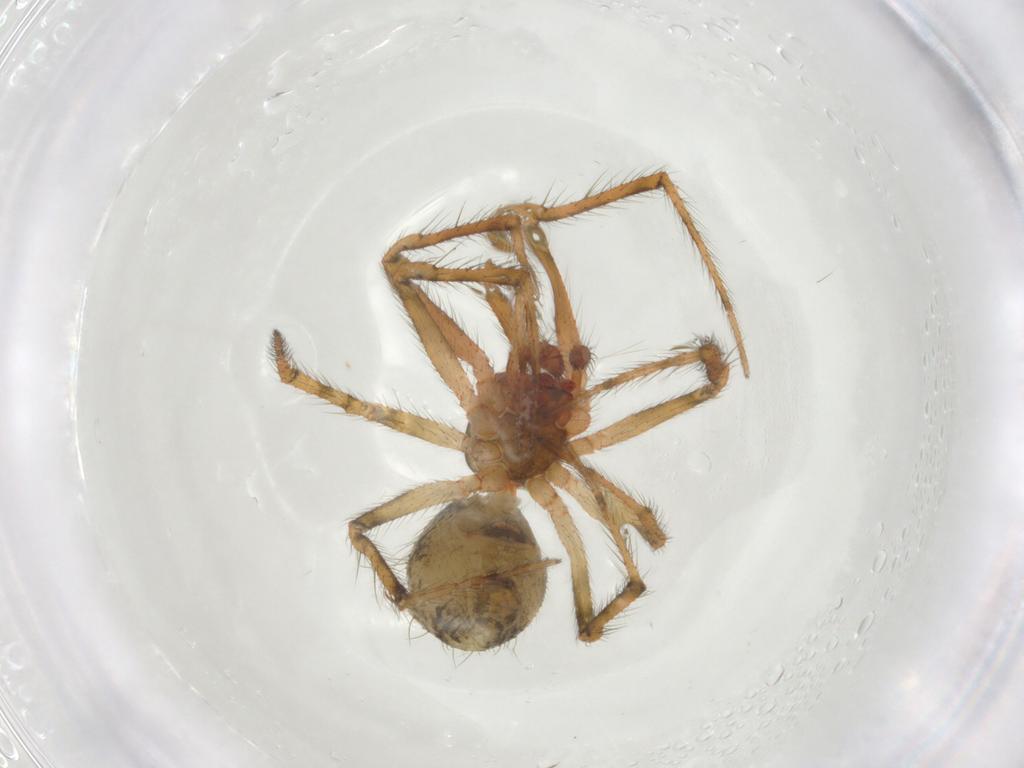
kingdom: Animalia
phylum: Arthropoda
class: Arachnida
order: Araneae
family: Theridiidae
